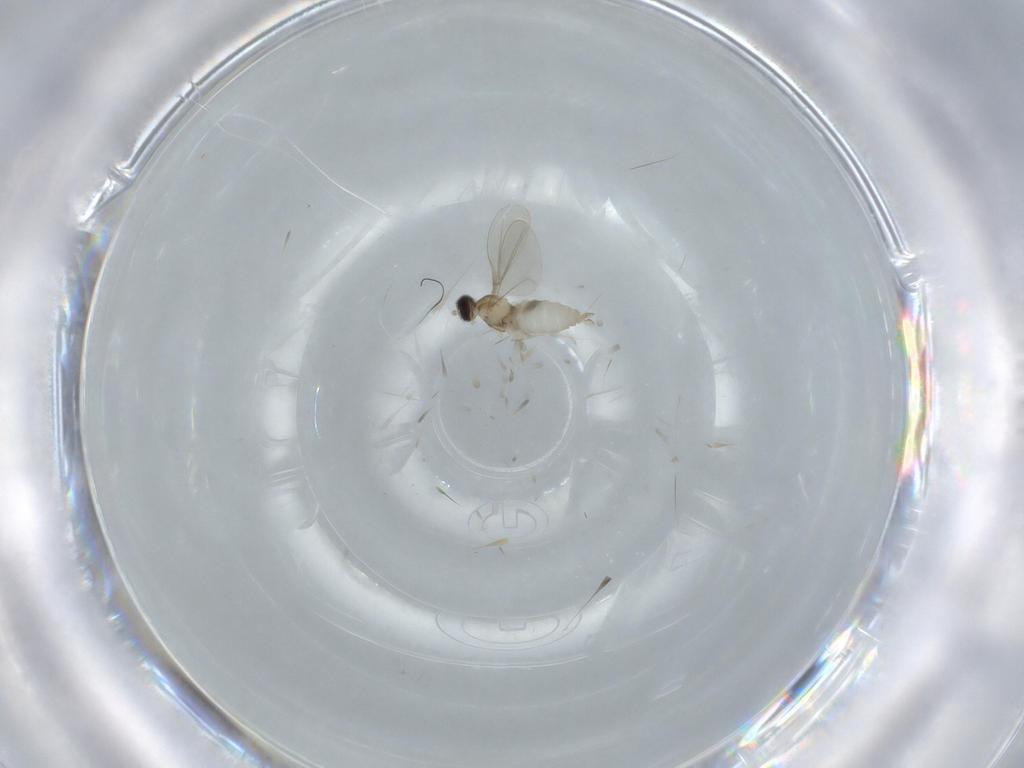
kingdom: Animalia
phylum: Arthropoda
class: Insecta
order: Diptera
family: Cecidomyiidae
